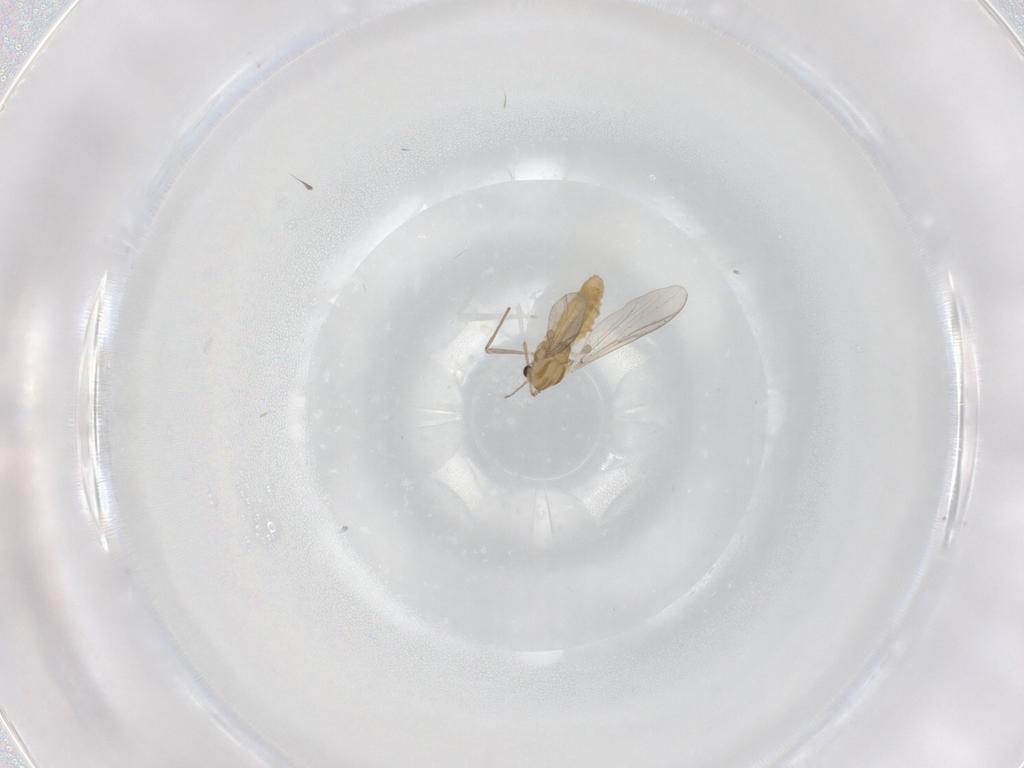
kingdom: Animalia
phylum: Arthropoda
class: Insecta
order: Diptera
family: Chironomidae
